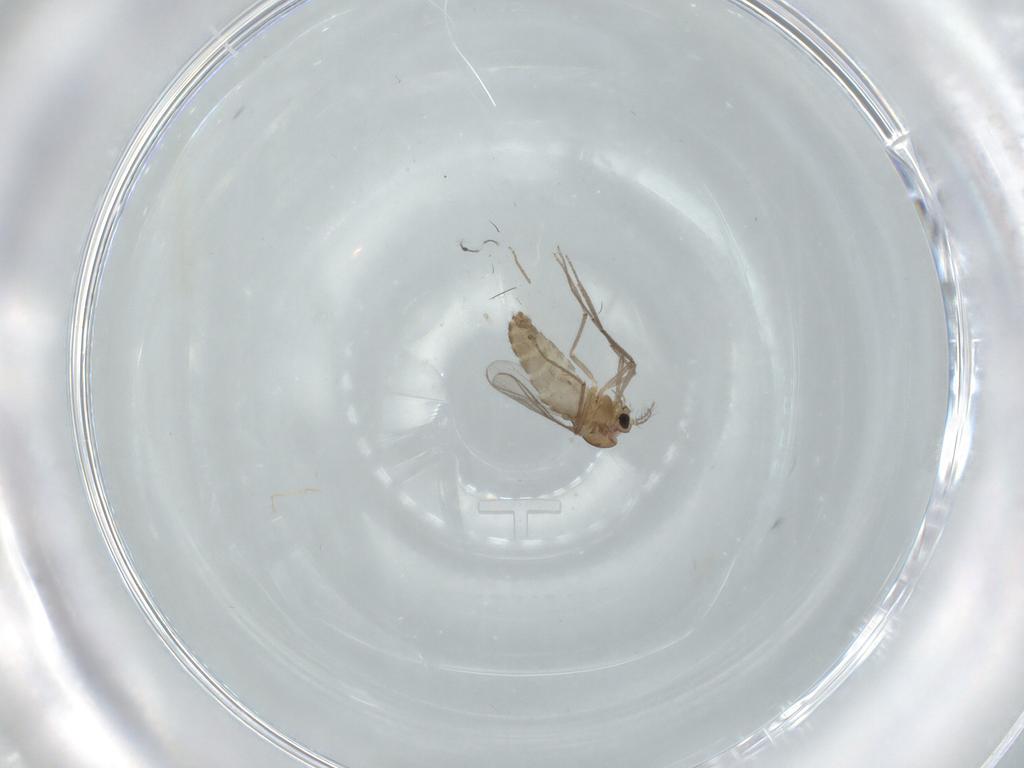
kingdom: Animalia
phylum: Arthropoda
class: Insecta
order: Diptera
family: Chironomidae
